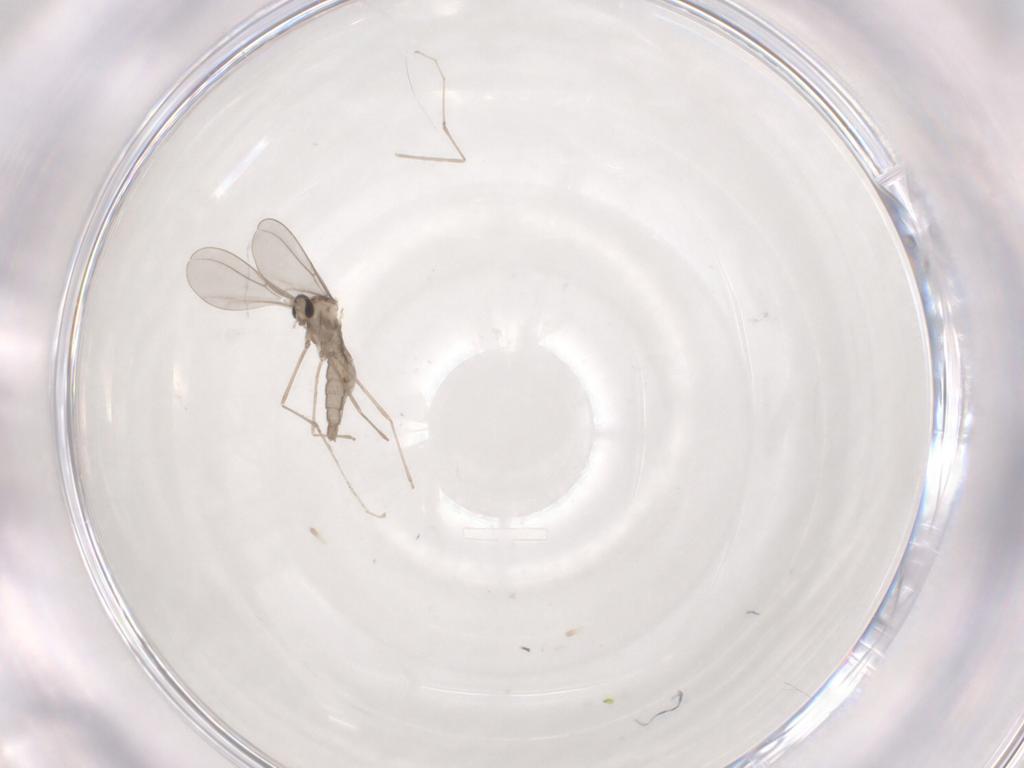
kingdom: Animalia
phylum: Arthropoda
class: Insecta
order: Diptera
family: Cecidomyiidae
